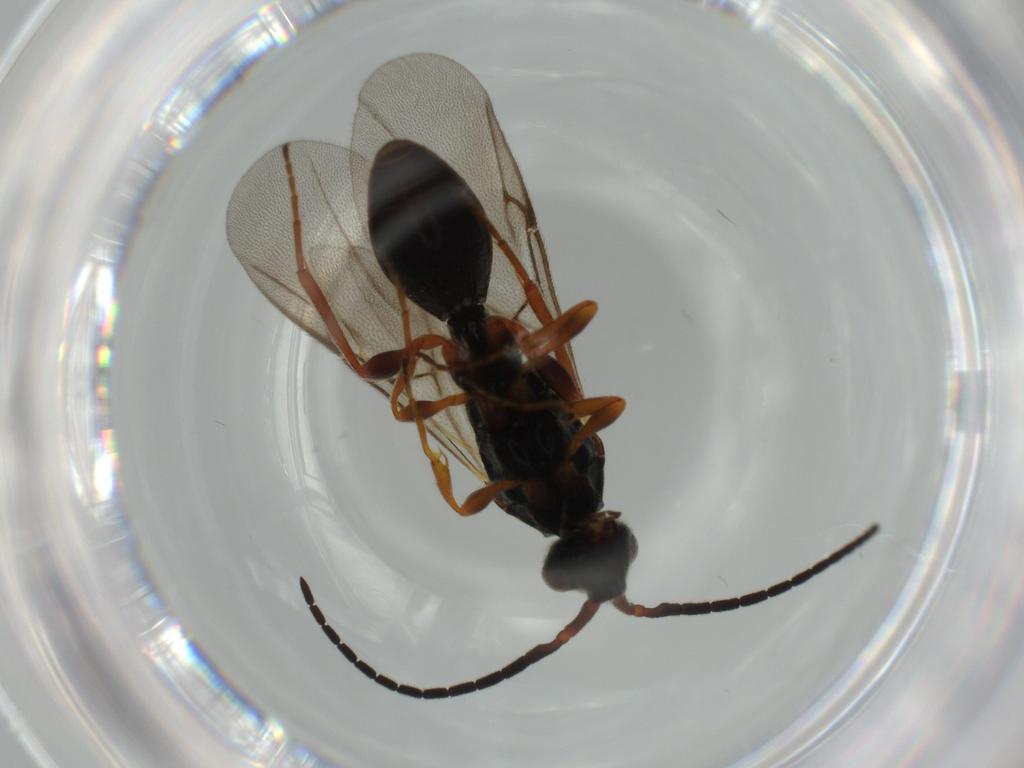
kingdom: Animalia
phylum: Arthropoda
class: Insecta
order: Hymenoptera
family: Diapriidae
